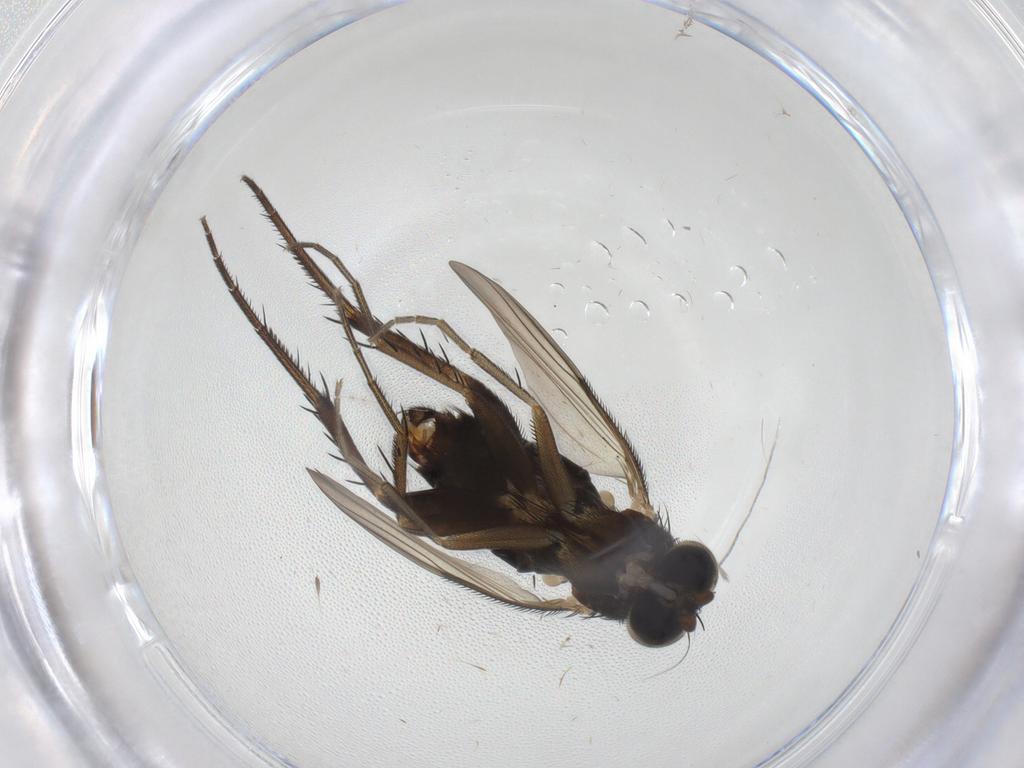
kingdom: Animalia
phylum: Arthropoda
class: Insecta
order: Diptera
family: Phoridae
